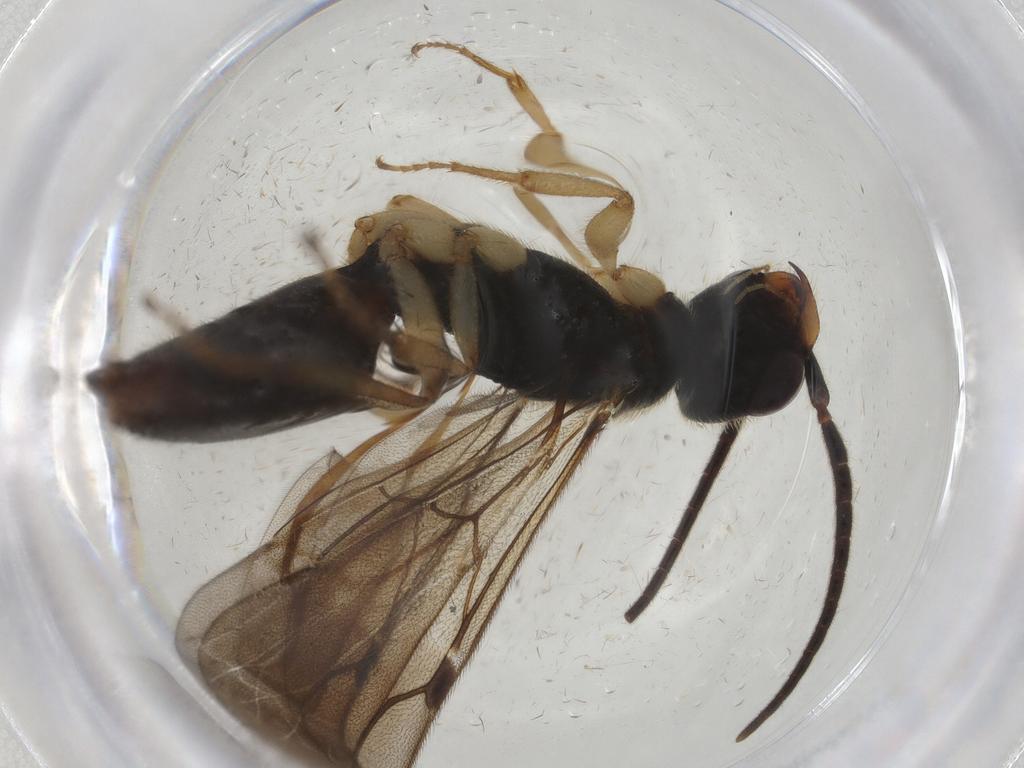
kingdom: Animalia
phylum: Arthropoda
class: Insecta
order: Hymenoptera
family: Bethylidae
